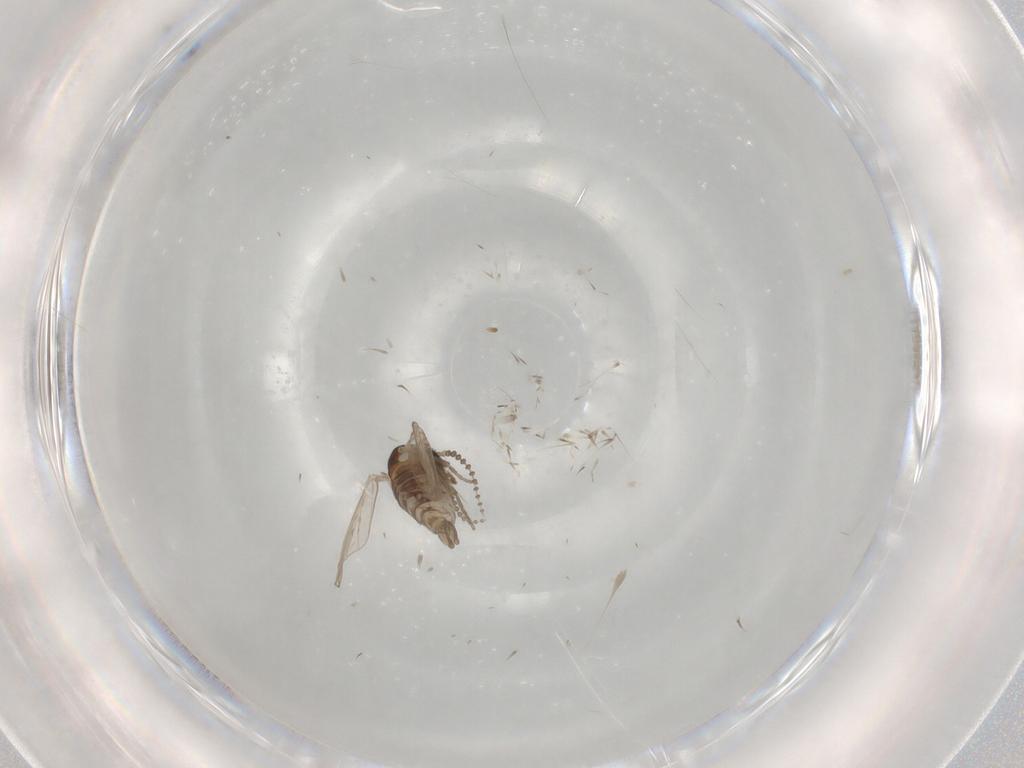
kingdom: Animalia
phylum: Arthropoda
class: Insecta
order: Diptera
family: Psychodidae
